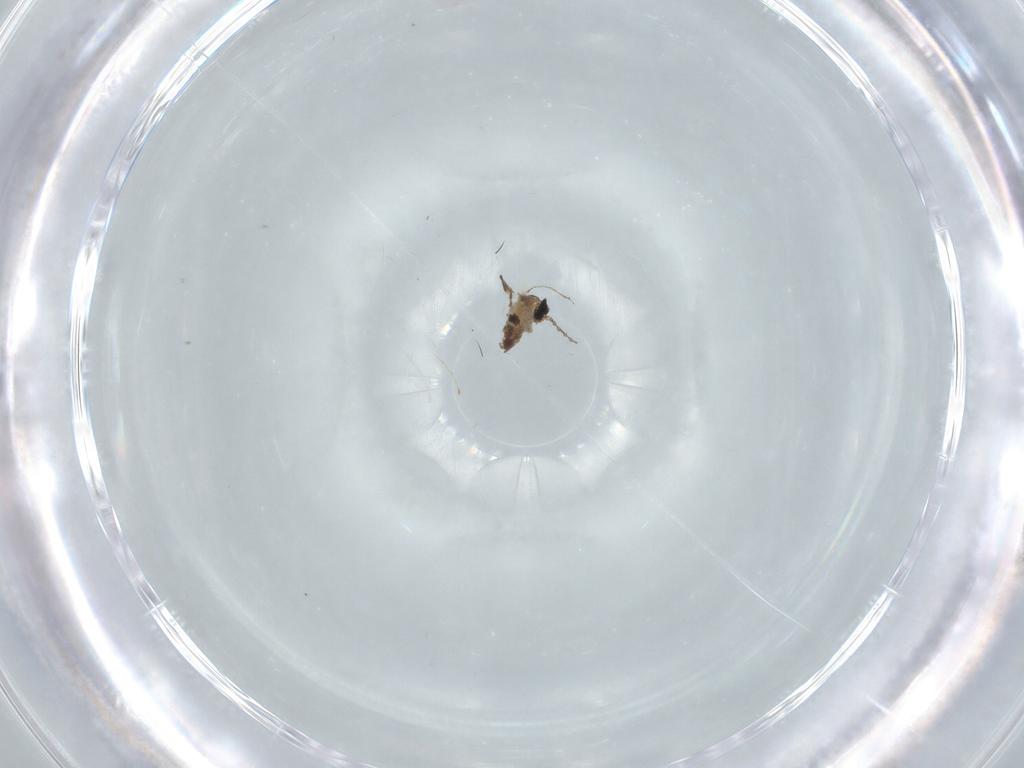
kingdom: Animalia
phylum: Arthropoda
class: Insecta
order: Diptera
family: Cecidomyiidae
